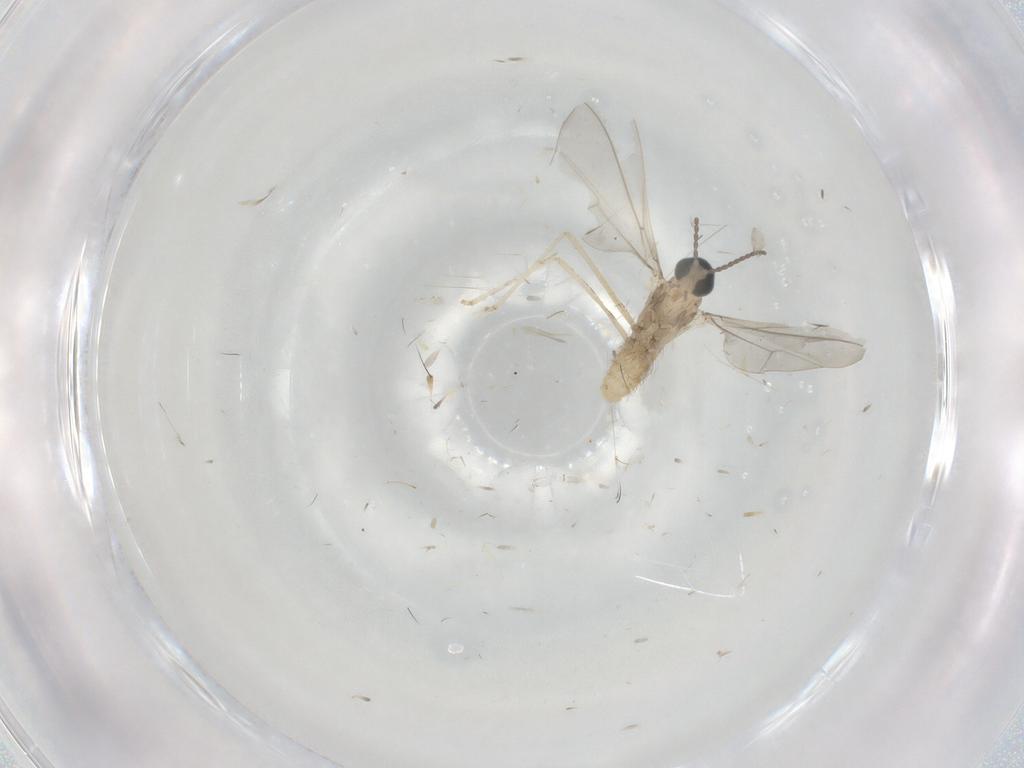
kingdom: Animalia
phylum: Arthropoda
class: Insecta
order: Diptera
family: Cecidomyiidae
